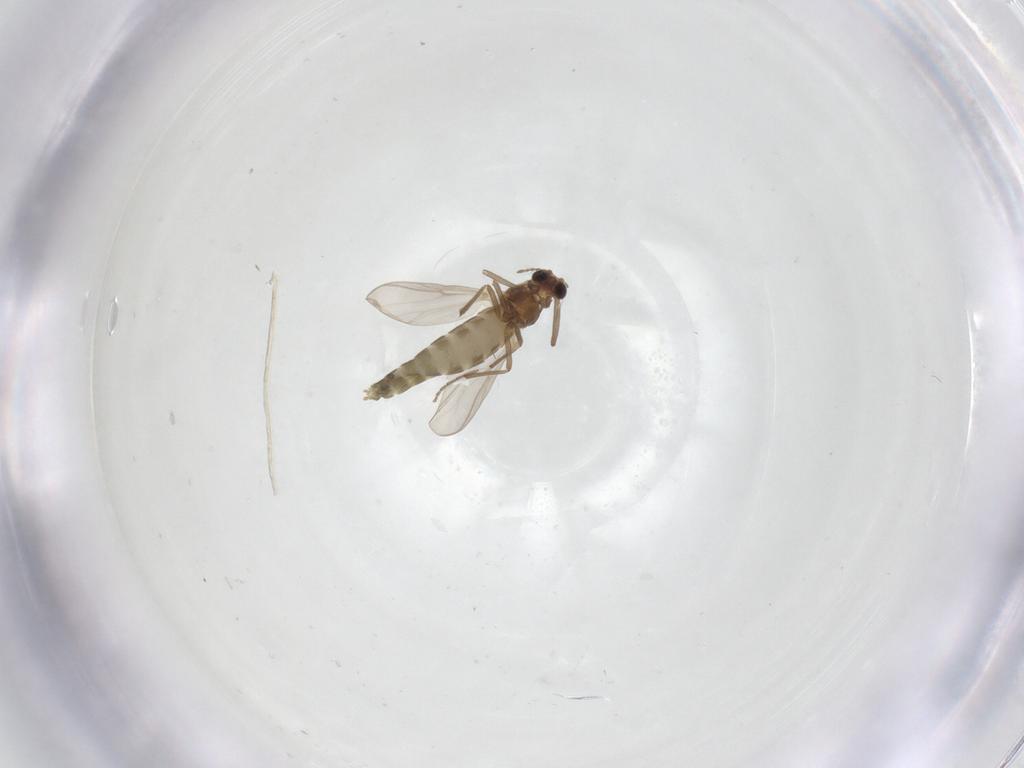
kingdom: Animalia
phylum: Arthropoda
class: Insecta
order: Diptera
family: Chironomidae
